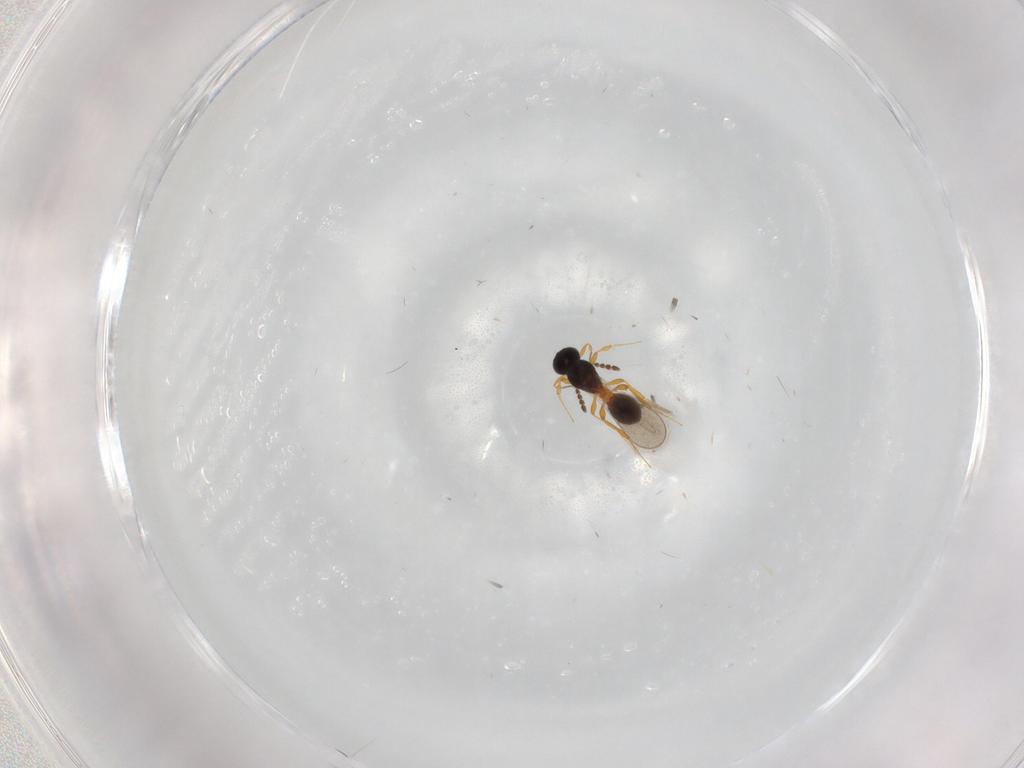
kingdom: Animalia
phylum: Arthropoda
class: Insecta
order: Hymenoptera
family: Platygastridae
